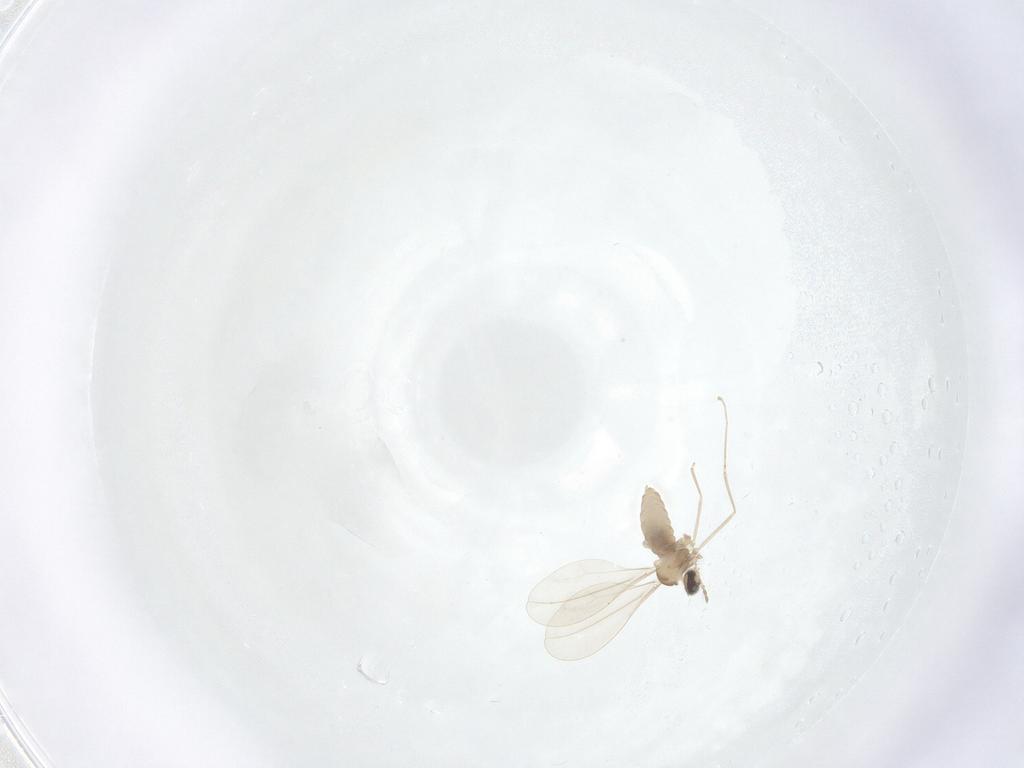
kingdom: Animalia
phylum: Arthropoda
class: Insecta
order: Diptera
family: Cecidomyiidae
